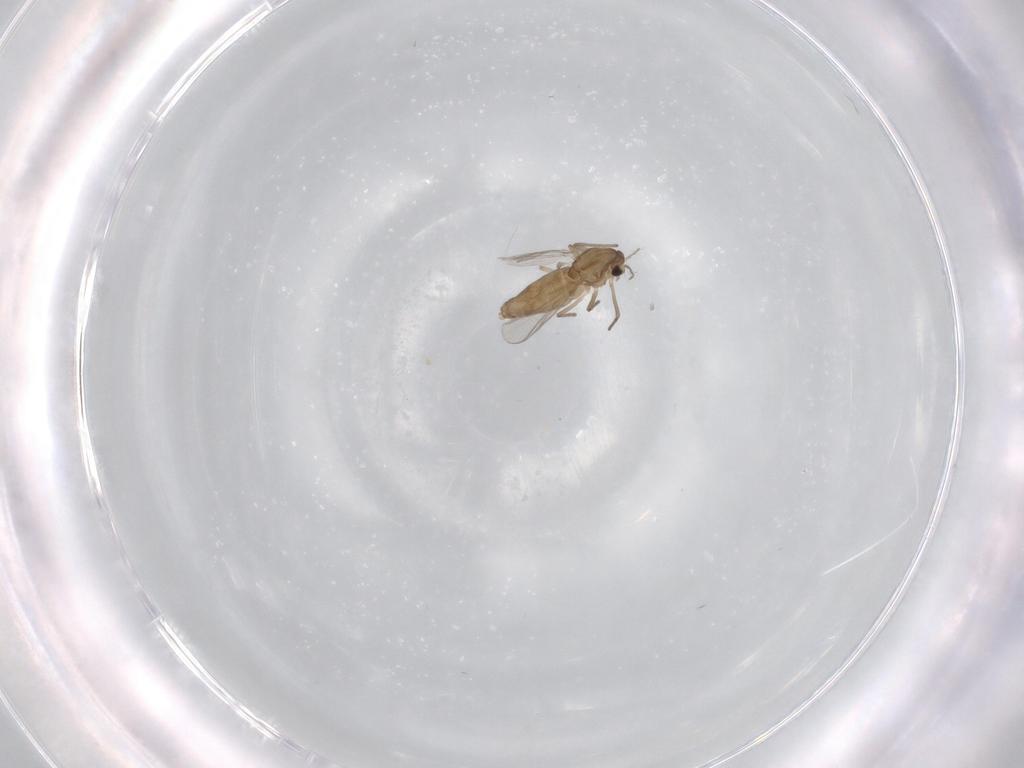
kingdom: Animalia
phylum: Arthropoda
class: Insecta
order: Diptera
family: Chironomidae
